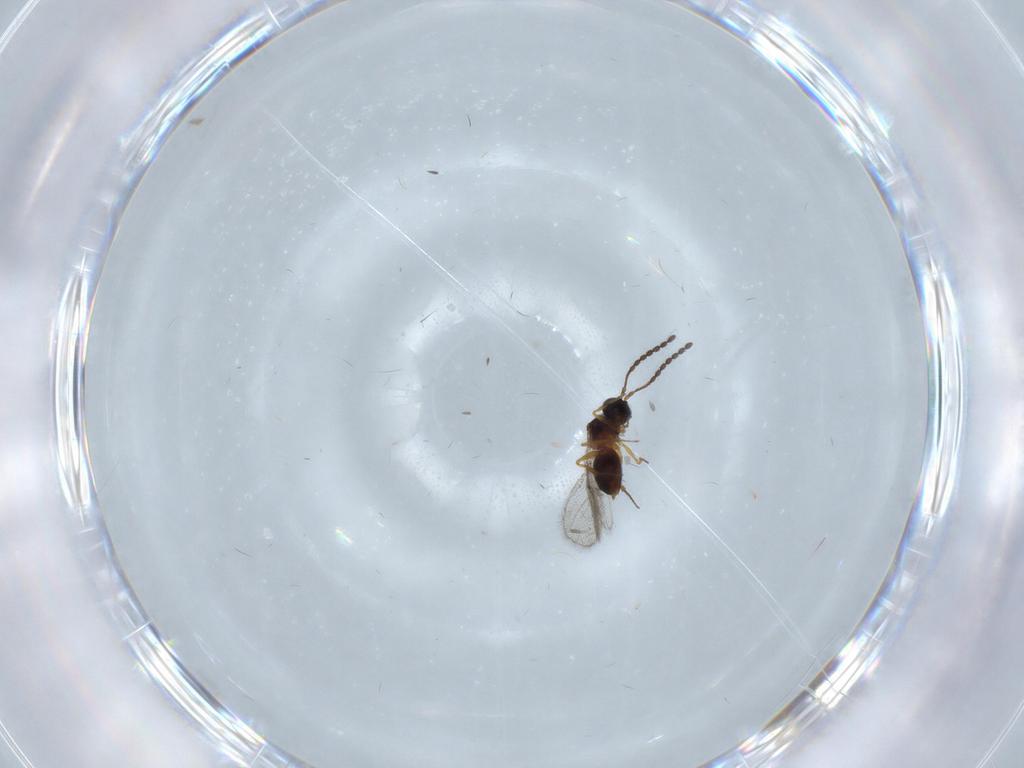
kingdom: Animalia
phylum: Arthropoda
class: Insecta
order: Hymenoptera
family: Figitidae
